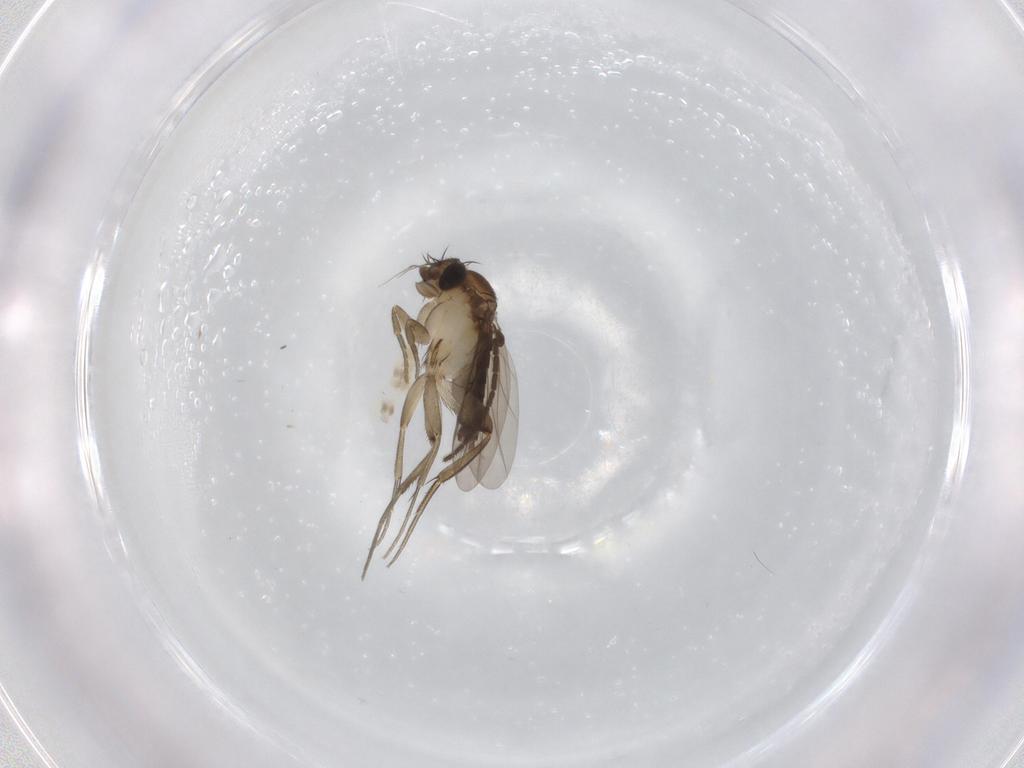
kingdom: Animalia
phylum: Arthropoda
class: Insecta
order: Diptera
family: Phoridae
